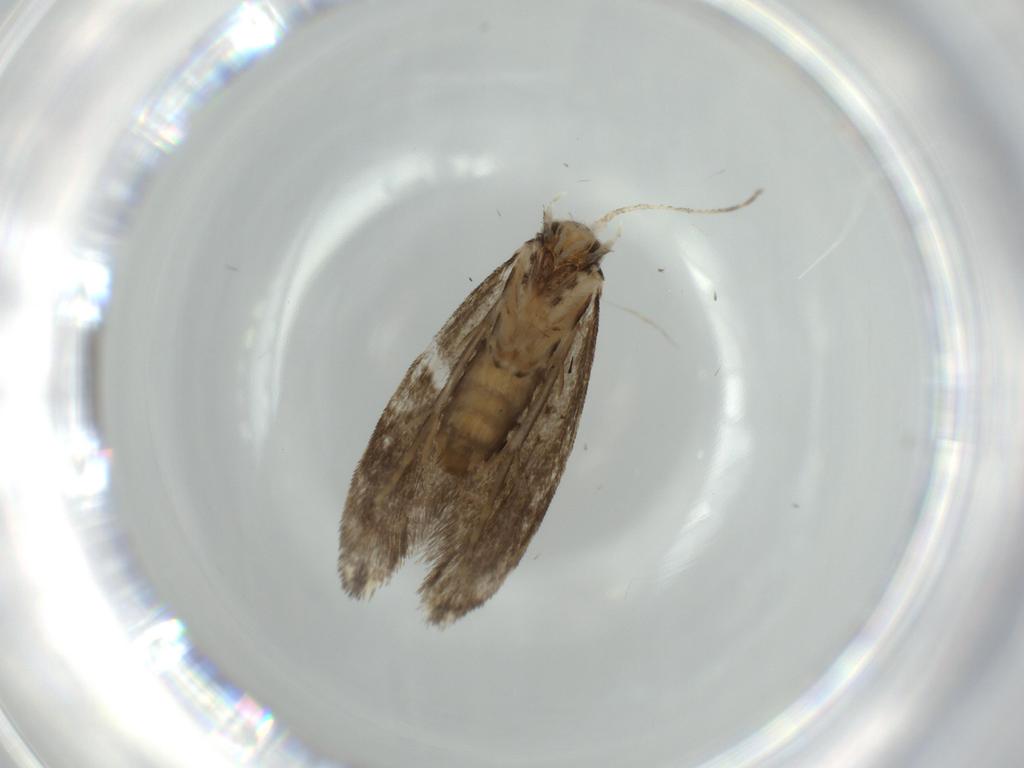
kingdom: Animalia
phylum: Arthropoda
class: Insecta
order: Lepidoptera
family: Tineidae
